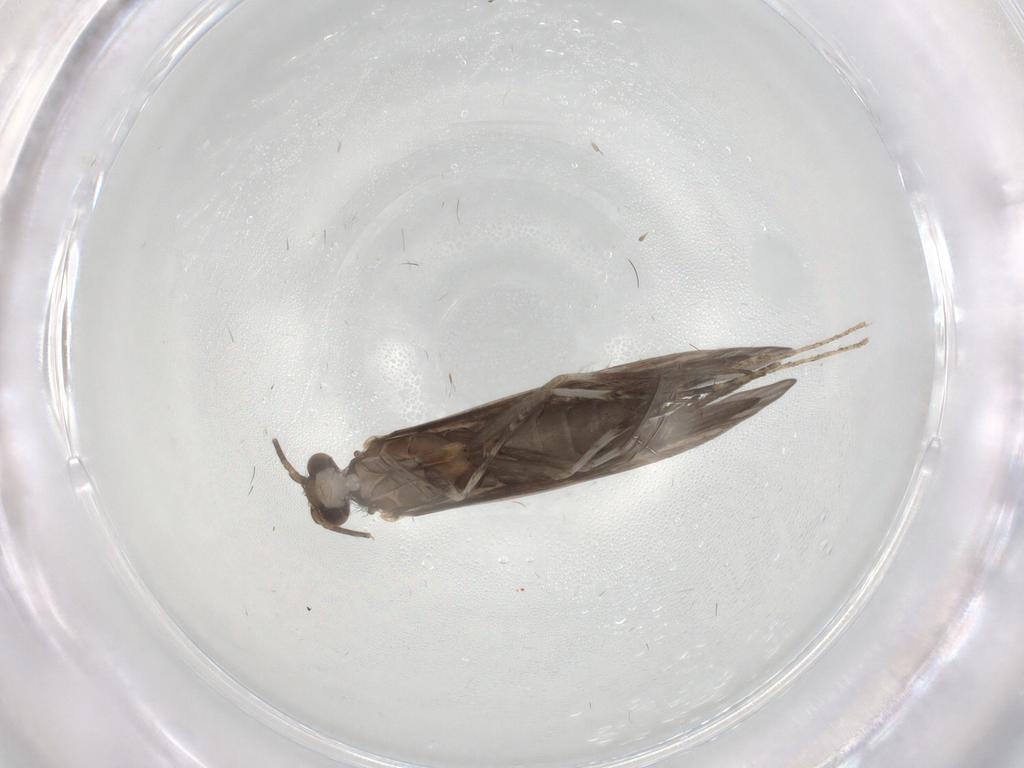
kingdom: Animalia
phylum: Arthropoda
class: Insecta
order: Trichoptera
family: Xiphocentronidae
